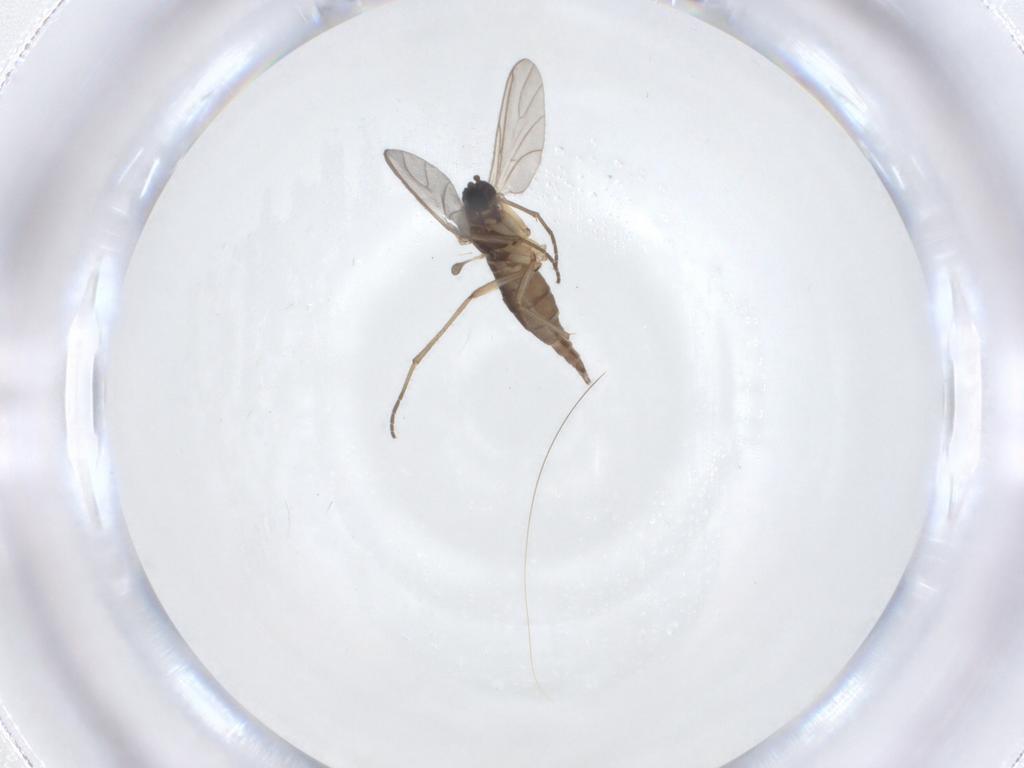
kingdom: Animalia
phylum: Arthropoda
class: Insecta
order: Diptera
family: Sciaridae
